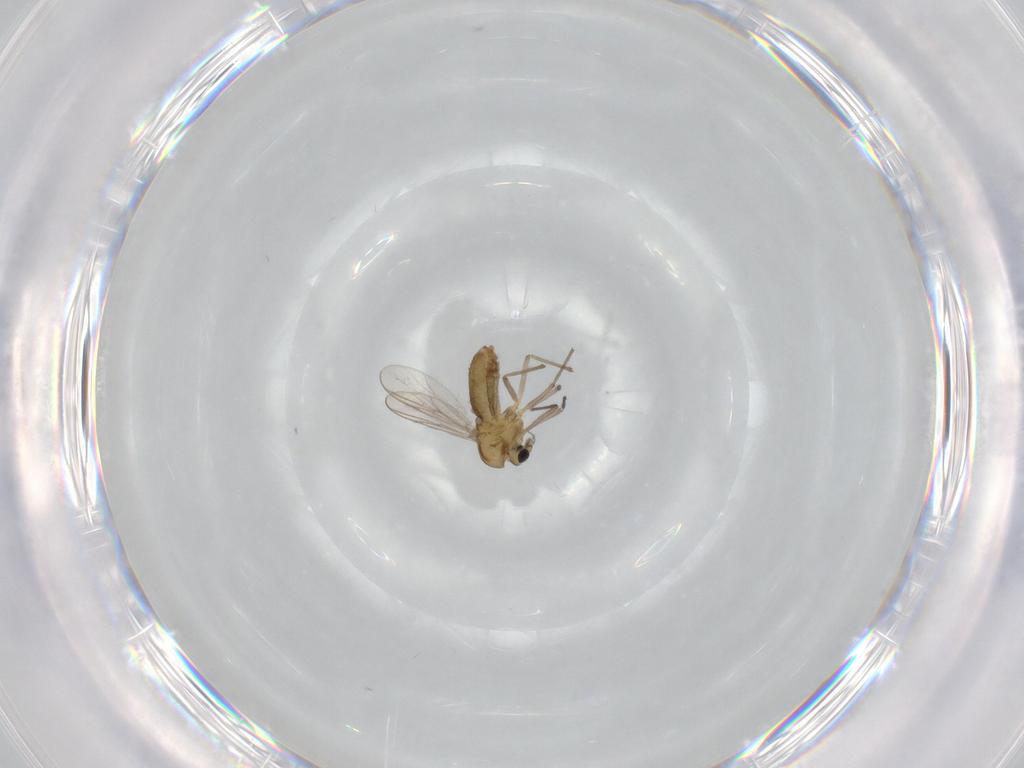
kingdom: Animalia
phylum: Arthropoda
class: Insecta
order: Diptera
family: Chironomidae
